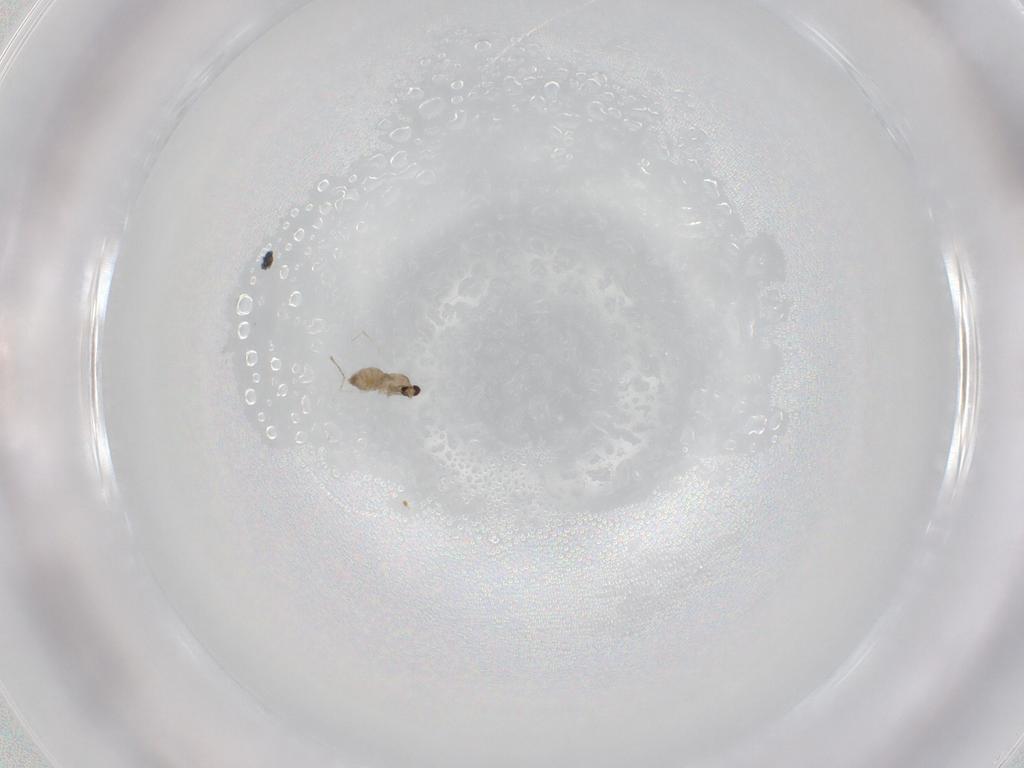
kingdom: Animalia
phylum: Arthropoda
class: Insecta
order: Diptera
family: Cecidomyiidae
